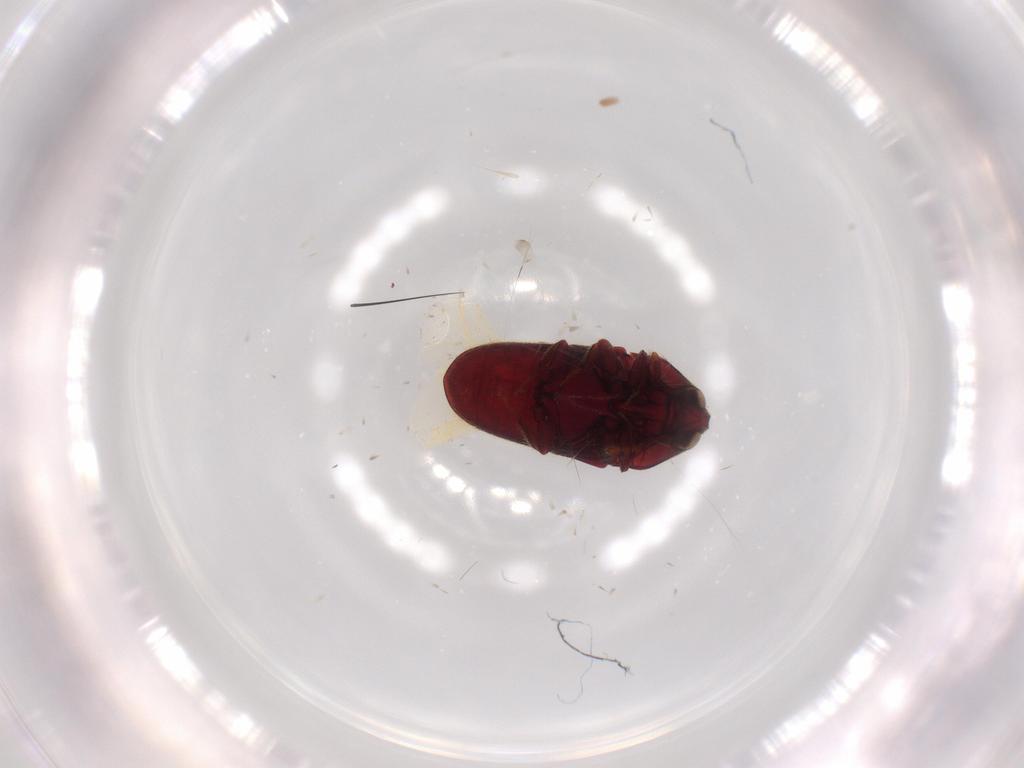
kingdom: Animalia
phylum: Arthropoda
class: Insecta
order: Coleoptera
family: Throscidae
